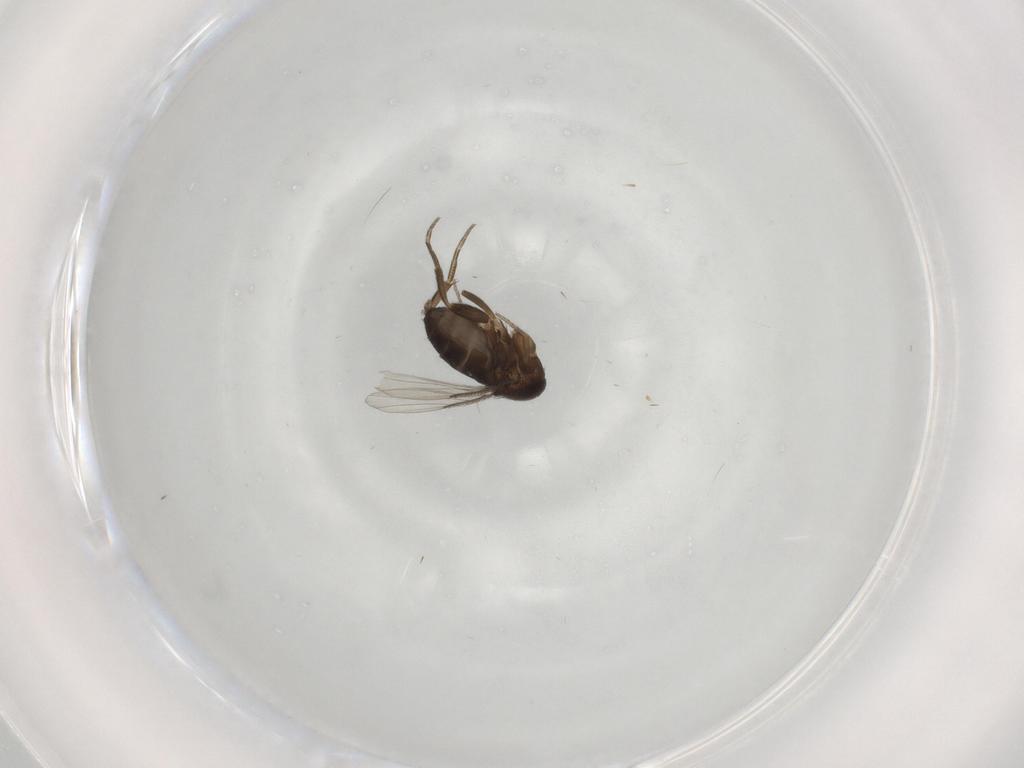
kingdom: Animalia
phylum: Arthropoda
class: Insecta
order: Diptera
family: Phoridae
